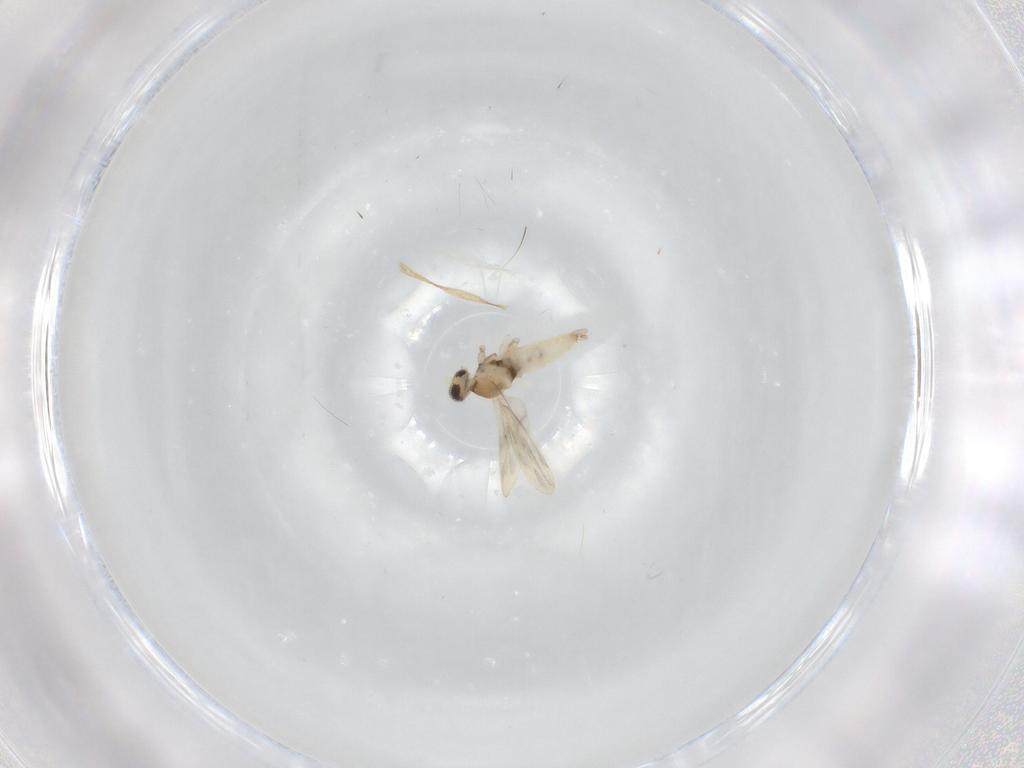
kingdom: Animalia
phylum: Arthropoda
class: Insecta
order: Diptera
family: Cecidomyiidae
